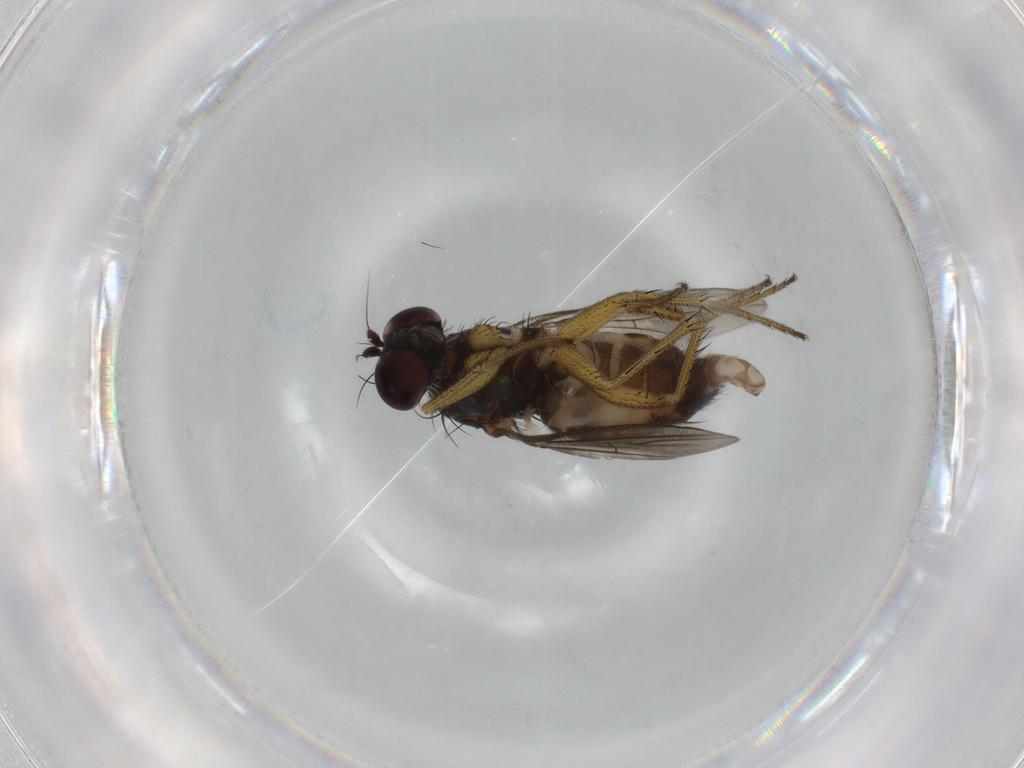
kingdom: Animalia
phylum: Arthropoda
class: Insecta
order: Diptera
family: Dolichopodidae
